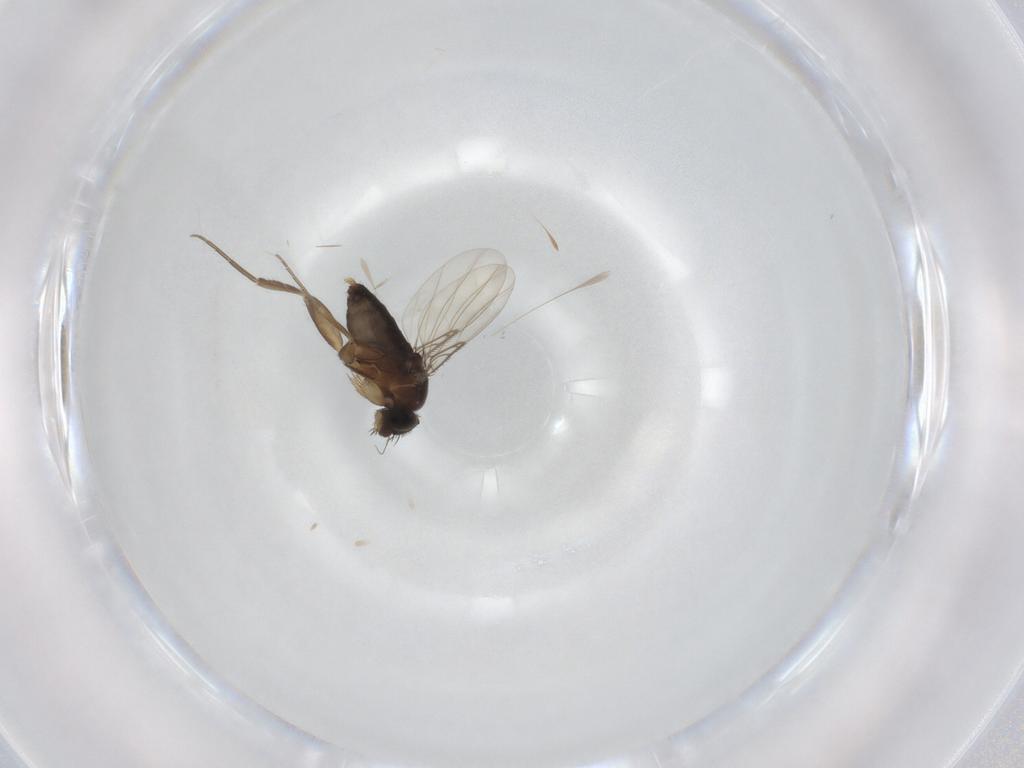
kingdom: Animalia
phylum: Arthropoda
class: Insecta
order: Diptera
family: Phoridae
